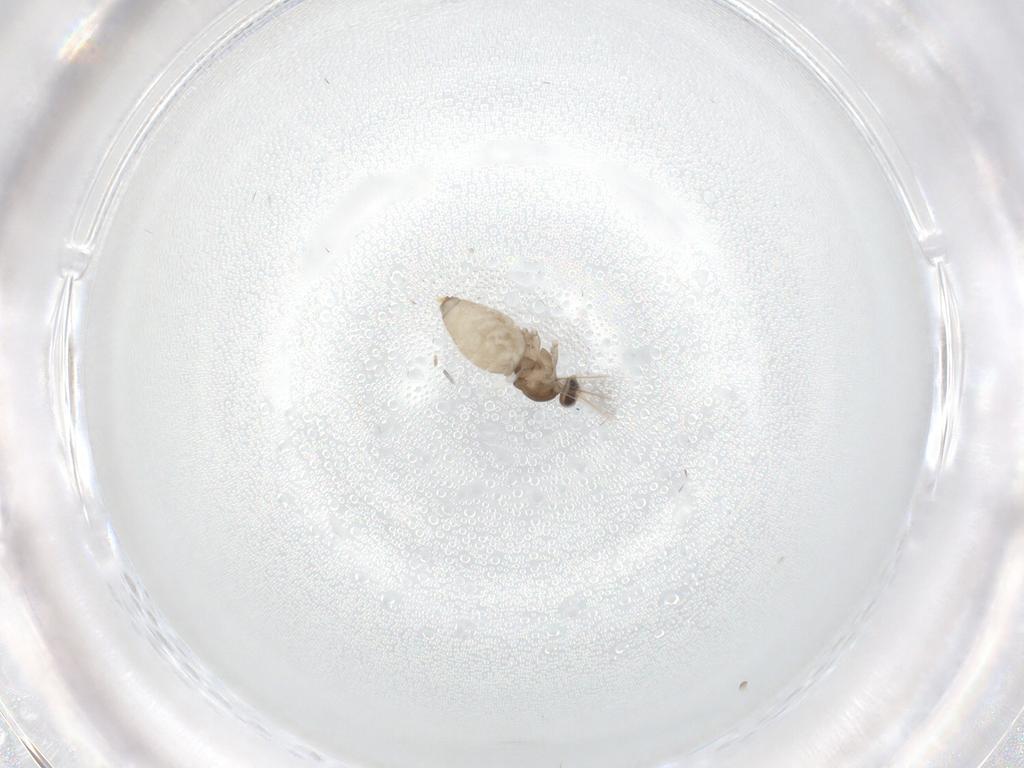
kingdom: Animalia
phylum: Arthropoda
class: Insecta
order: Diptera
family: Cecidomyiidae
